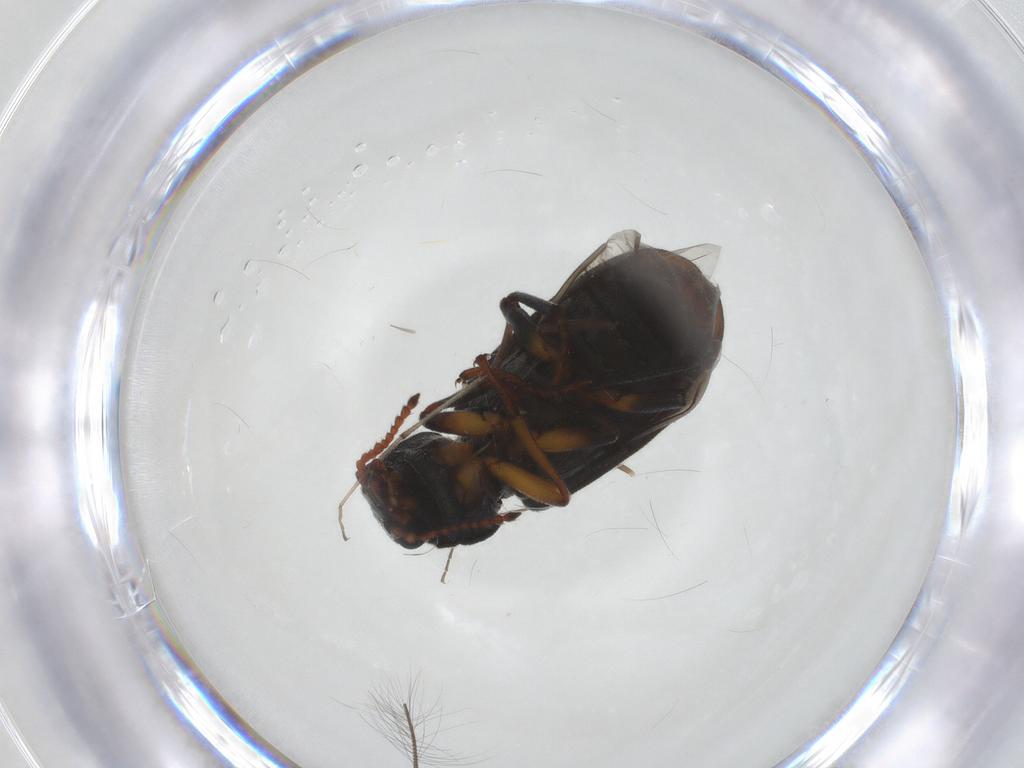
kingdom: Animalia
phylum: Arthropoda
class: Insecta
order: Coleoptera
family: Melyridae
